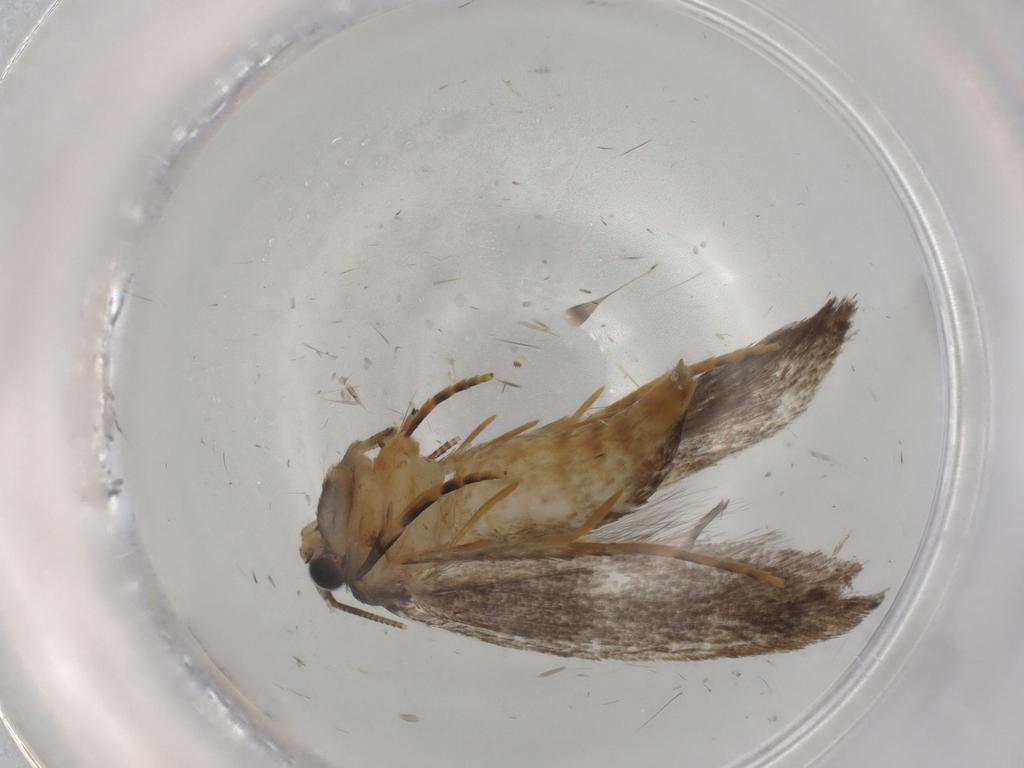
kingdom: Animalia
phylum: Arthropoda
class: Insecta
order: Lepidoptera
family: Tineidae
